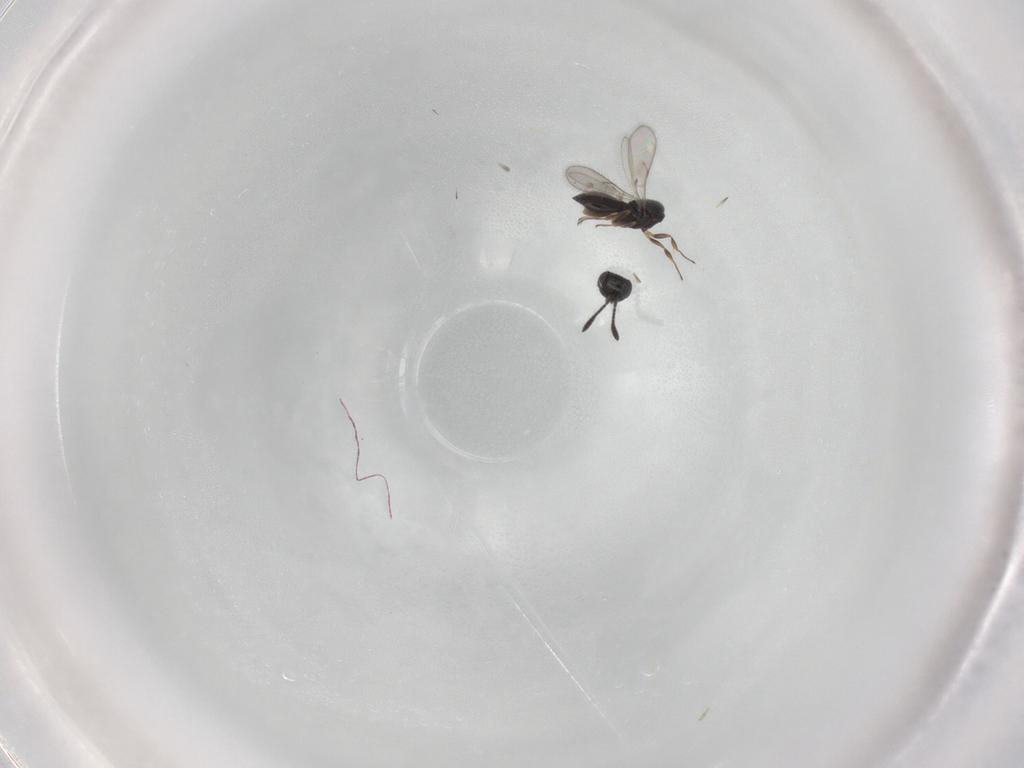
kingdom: Animalia
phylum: Arthropoda
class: Insecta
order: Hymenoptera
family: Scelionidae
